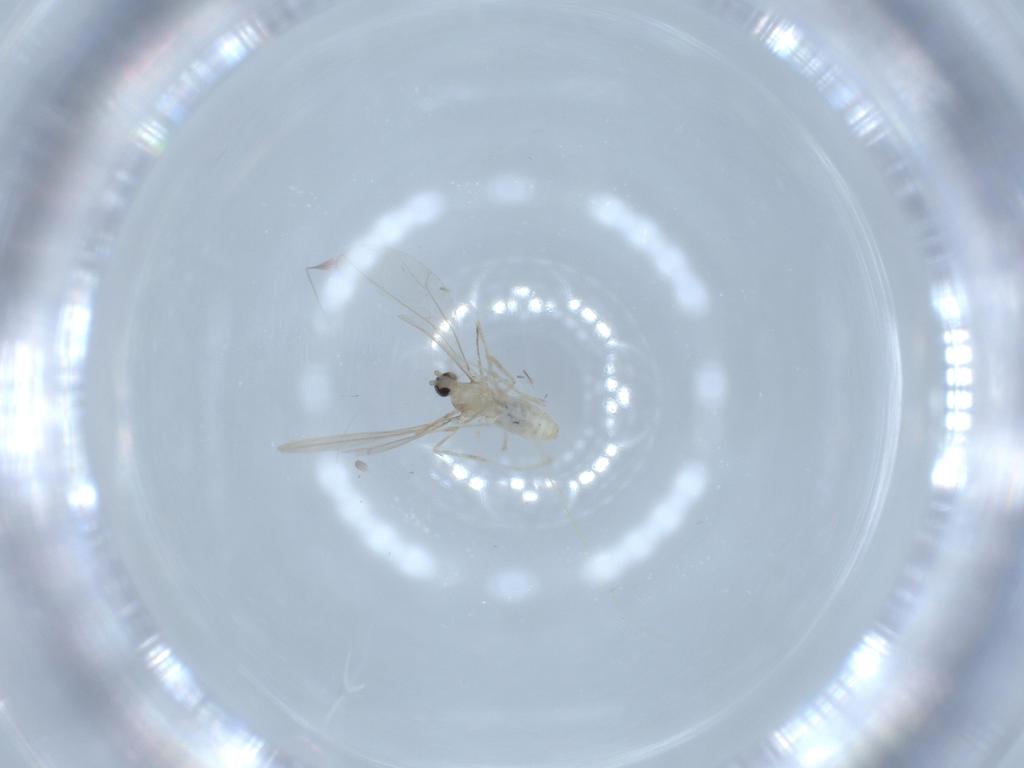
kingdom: Animalia
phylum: Arthropoda
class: Insecta
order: Diptera
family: Cecidomyiidae
